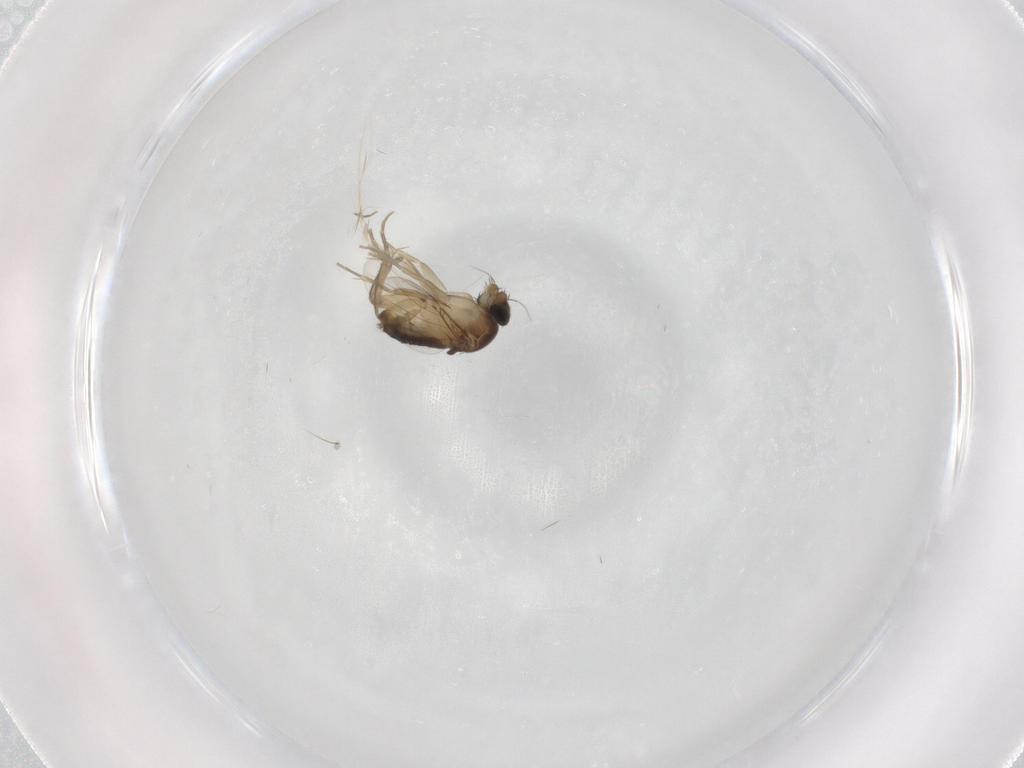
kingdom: Animalia
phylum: Arthropoda
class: Insecta
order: Diptera
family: Phoridae
